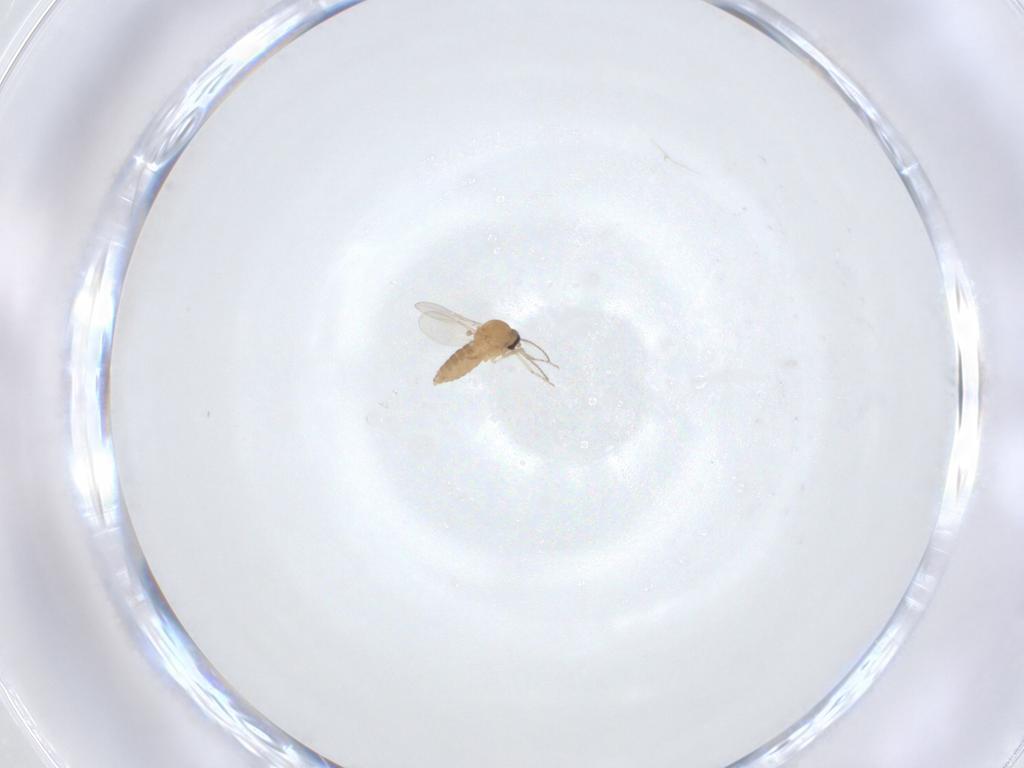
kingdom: Animalia
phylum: Arthropoda
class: Insecta
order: Diptera
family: Ceratopogonidae
